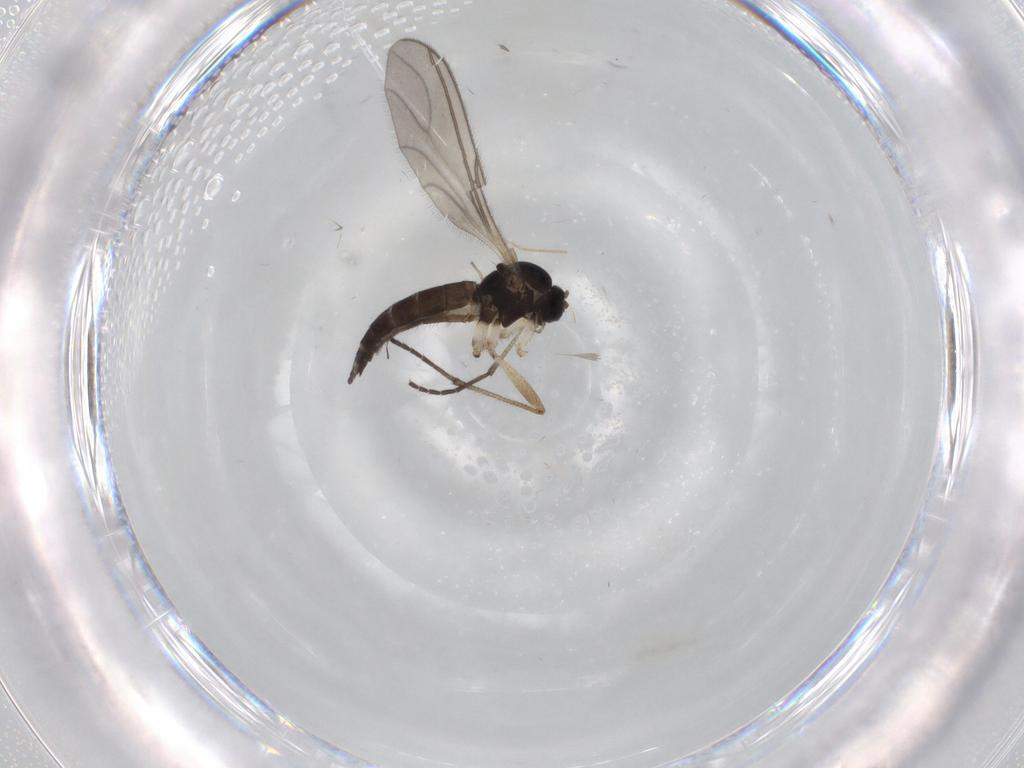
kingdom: Animalia
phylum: Arthropoda
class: Insecta
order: Diptera
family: Sciaridae
